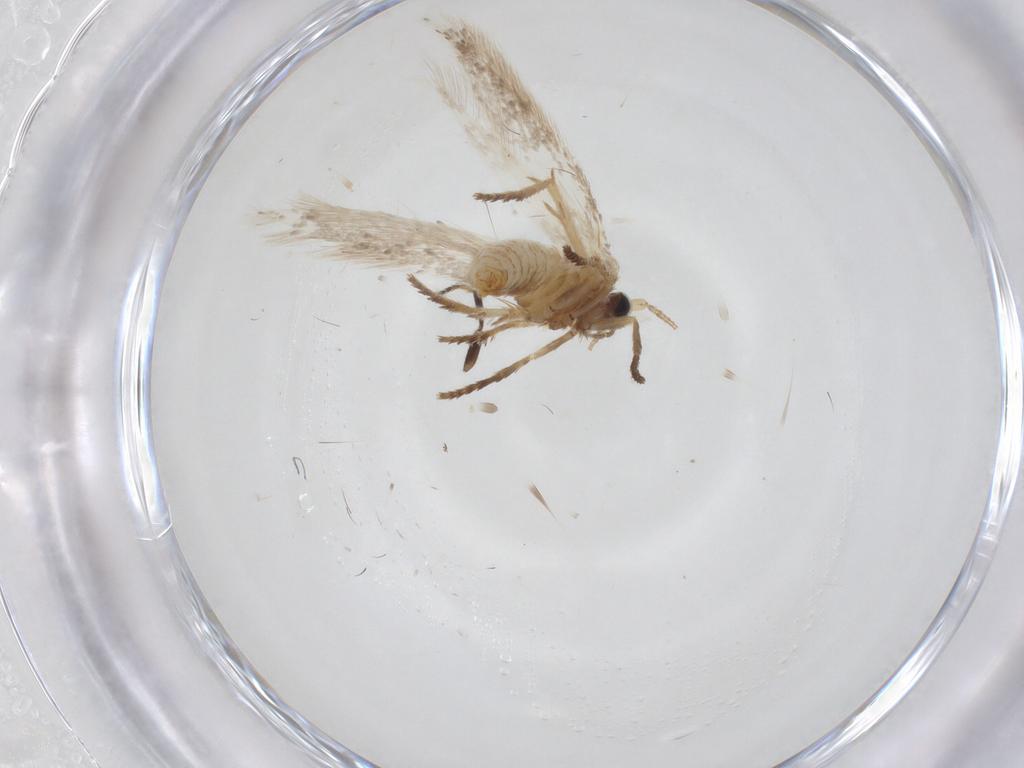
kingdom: Animalia
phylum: Arthropoda
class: Insecta
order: Lepidoptera
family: Gelechiidae
